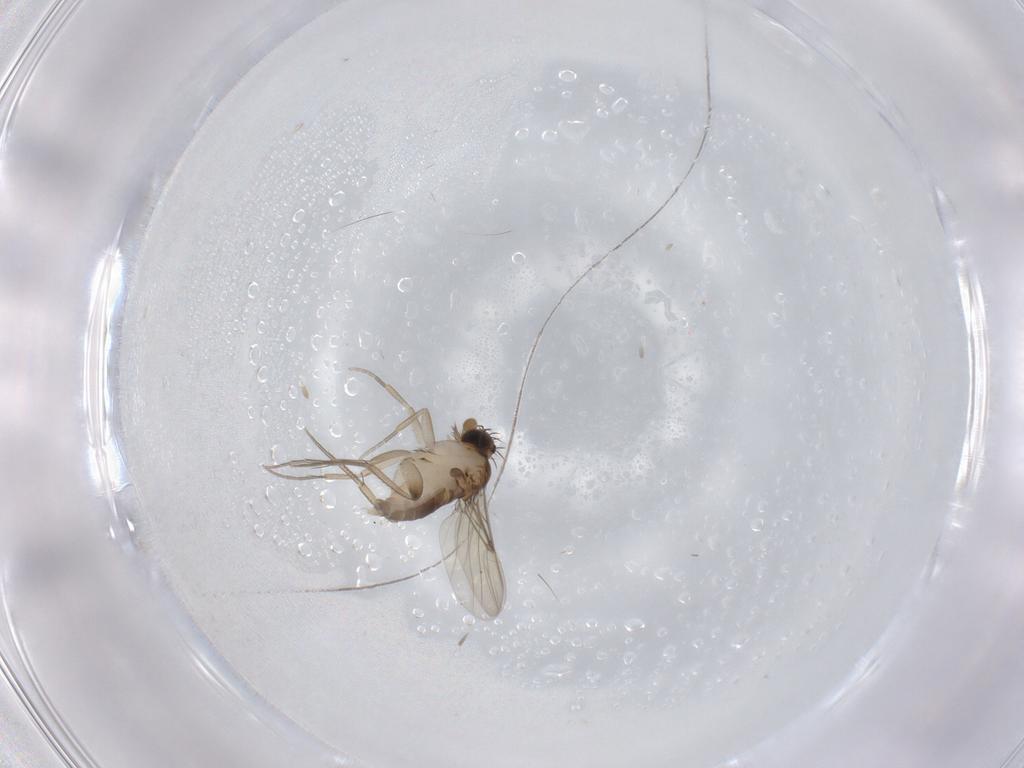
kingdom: Animalia
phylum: Arthropoda
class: Insecta
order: Diptera
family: Phoridae
